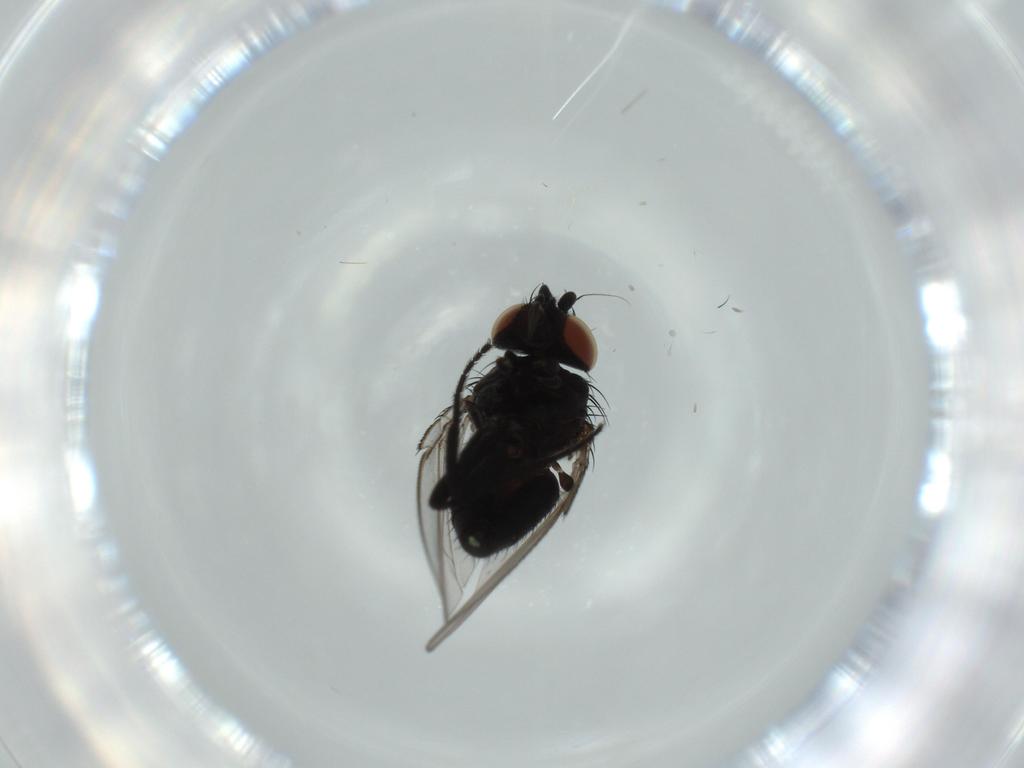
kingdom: Animalia
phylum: Arthropoda
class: Insecta
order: Diptera
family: Milichiidae
